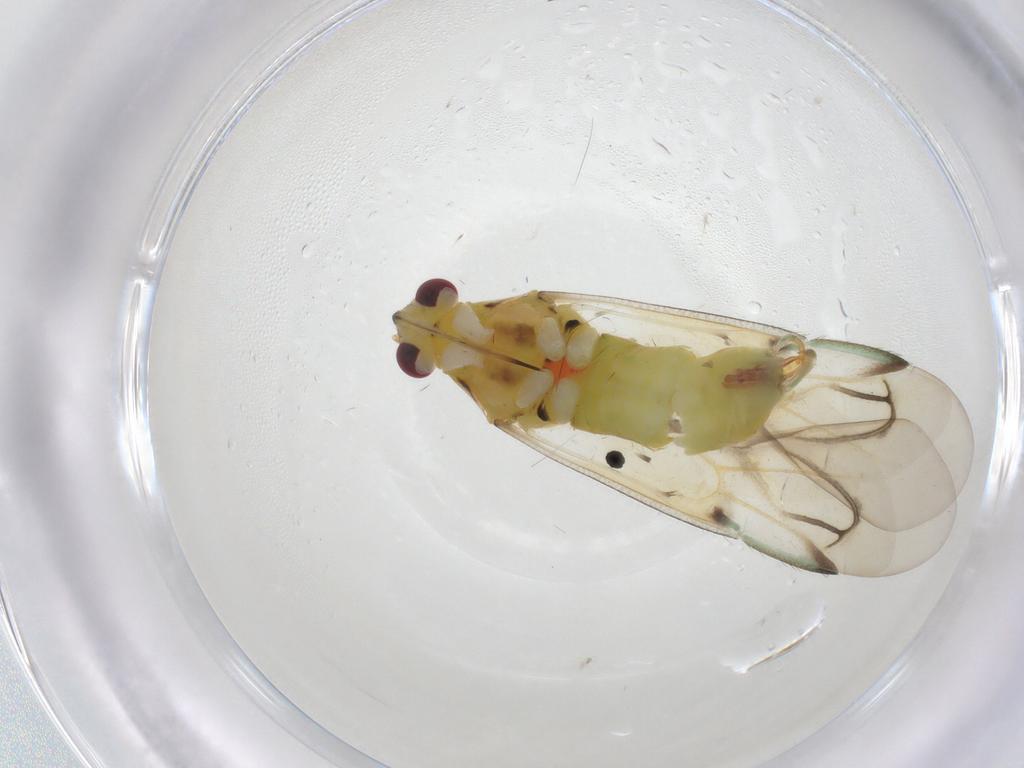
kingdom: Animalia
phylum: Arthropoda
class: Insecta
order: Hemiptera
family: Miridae
